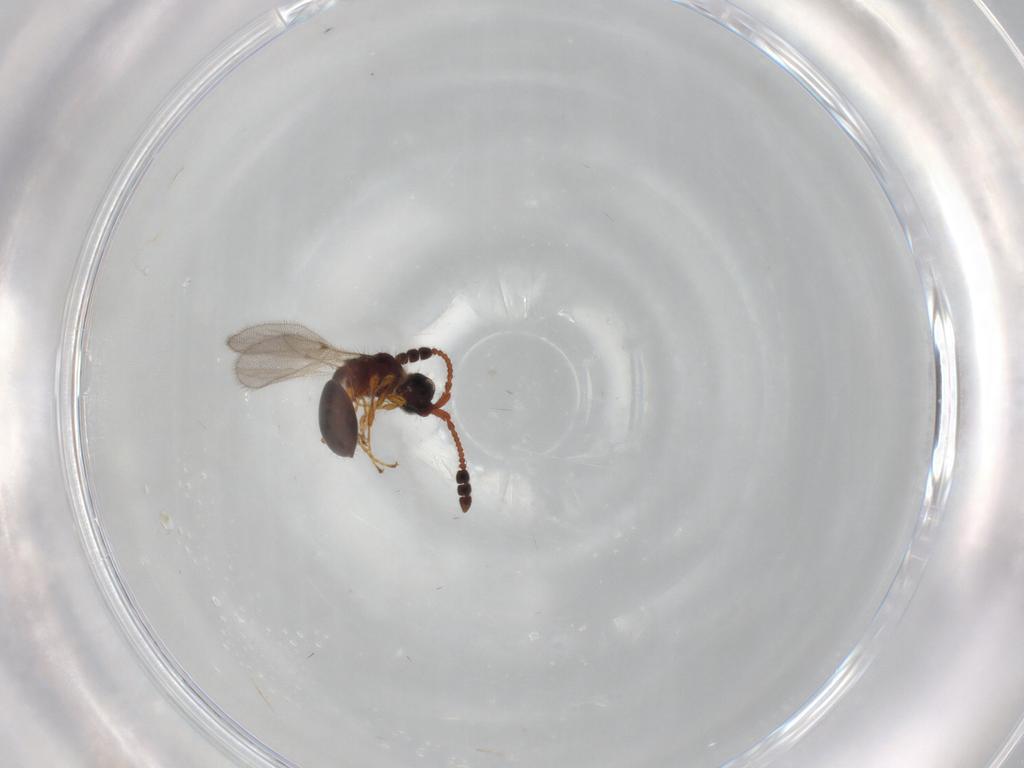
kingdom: Animalia
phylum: Arthropoda
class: Insecta
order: Hymenoptera
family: Diapriidae
